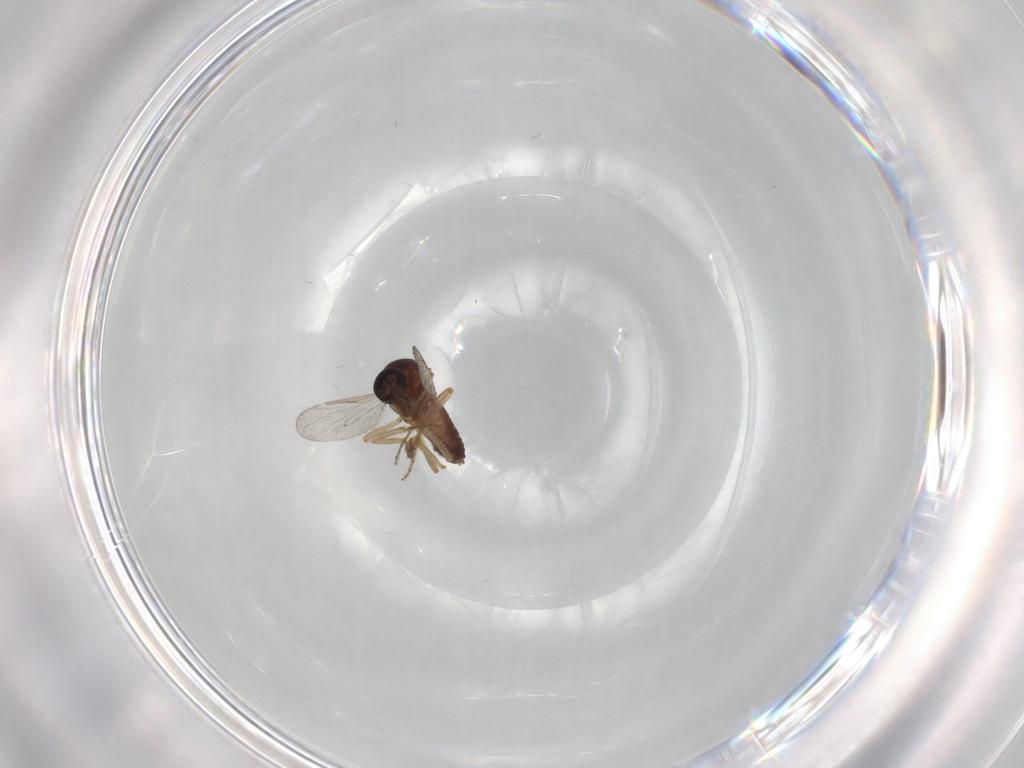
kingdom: Animalia
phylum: Arthropoda
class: Insecta
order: Diptera
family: Ceratopogonidae
